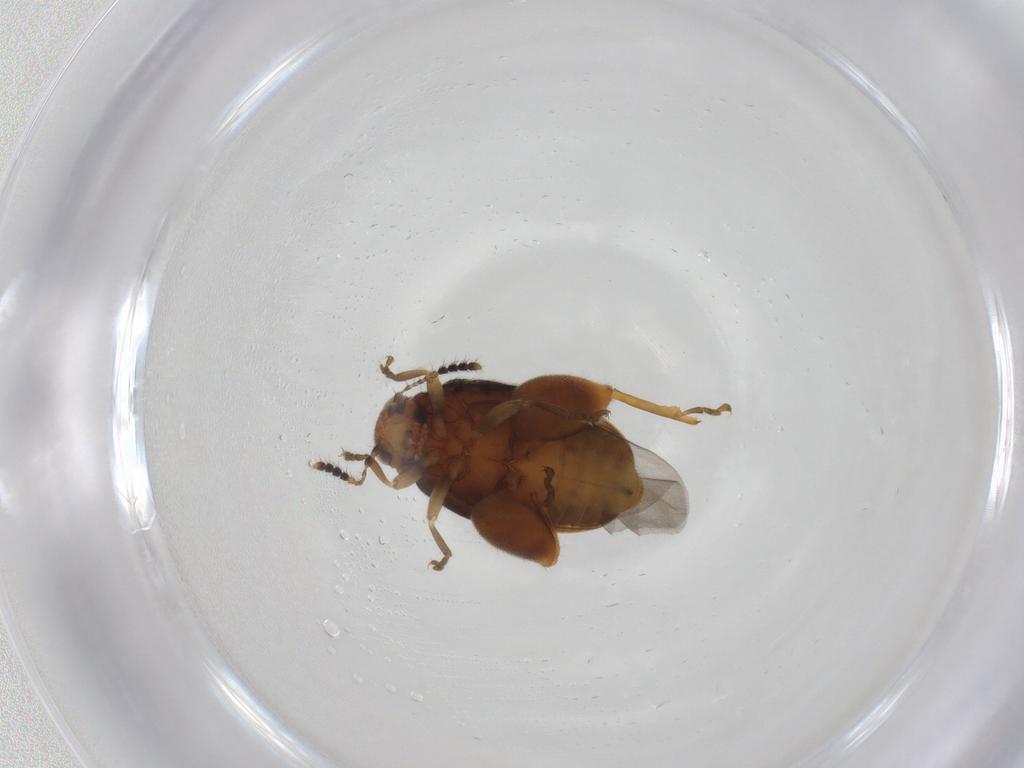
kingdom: Animalia
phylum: Arthropoda
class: Insecta
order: Coleoptera
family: Chrysomelidae
